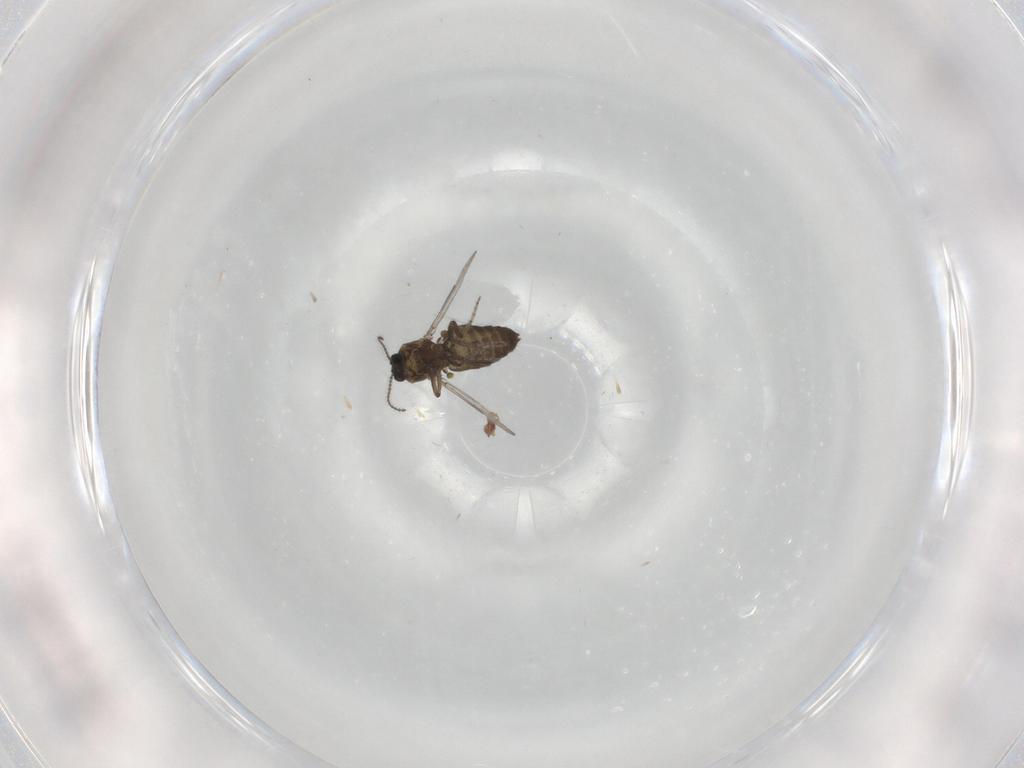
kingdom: Animalia
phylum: Arthropoda
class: Insecta
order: Diptera
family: Ceratopogonidae
